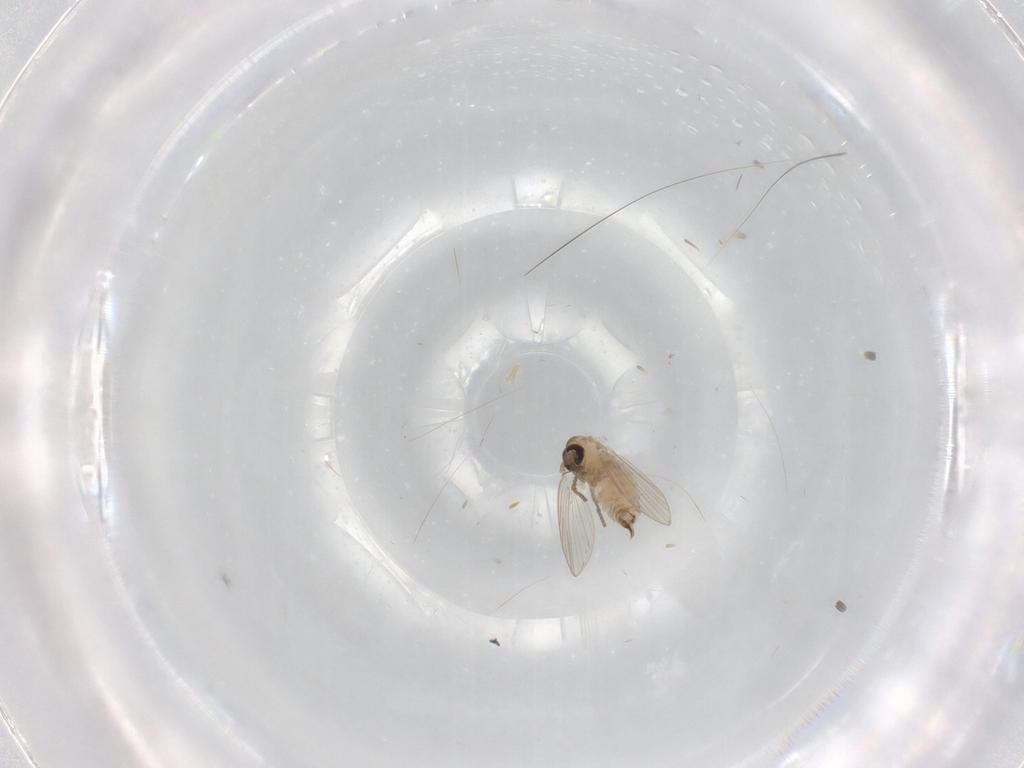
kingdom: Animalia
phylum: Arthropoda
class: Insecta
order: Diptera
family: Psychodidae
